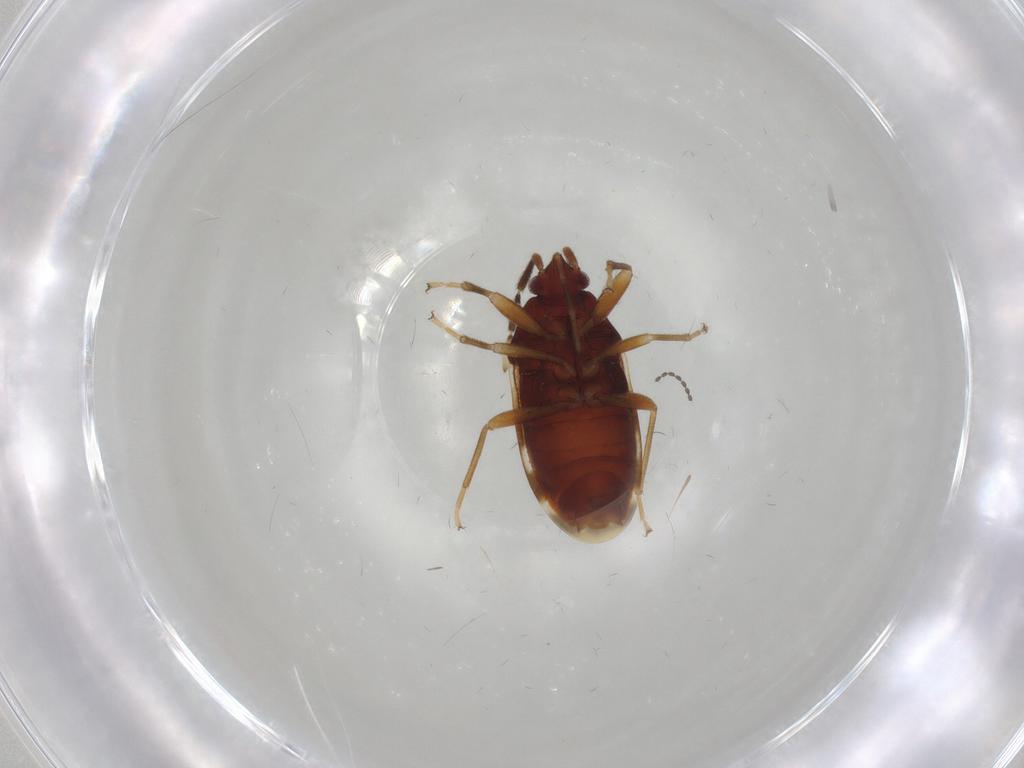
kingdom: Animalia
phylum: Arthropoda
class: Insecta
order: Hemiptera
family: Rhyparochromidae
